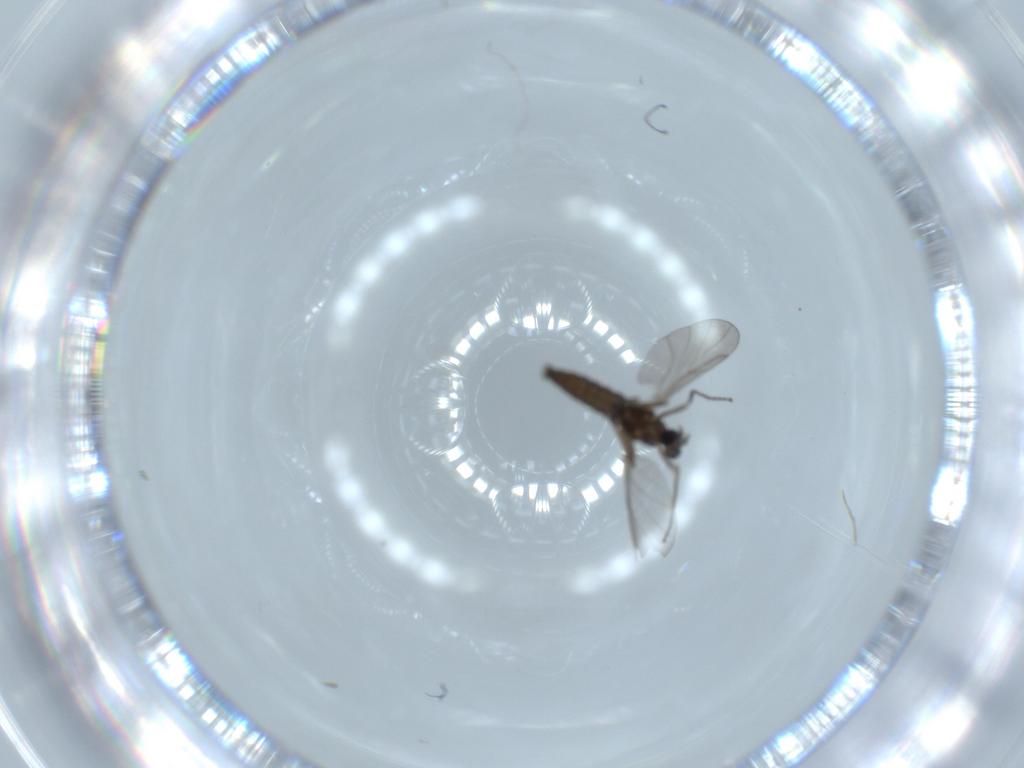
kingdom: Animalia
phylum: Arthropoda
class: Insecta
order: Diptera
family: Cecidomyiidae
